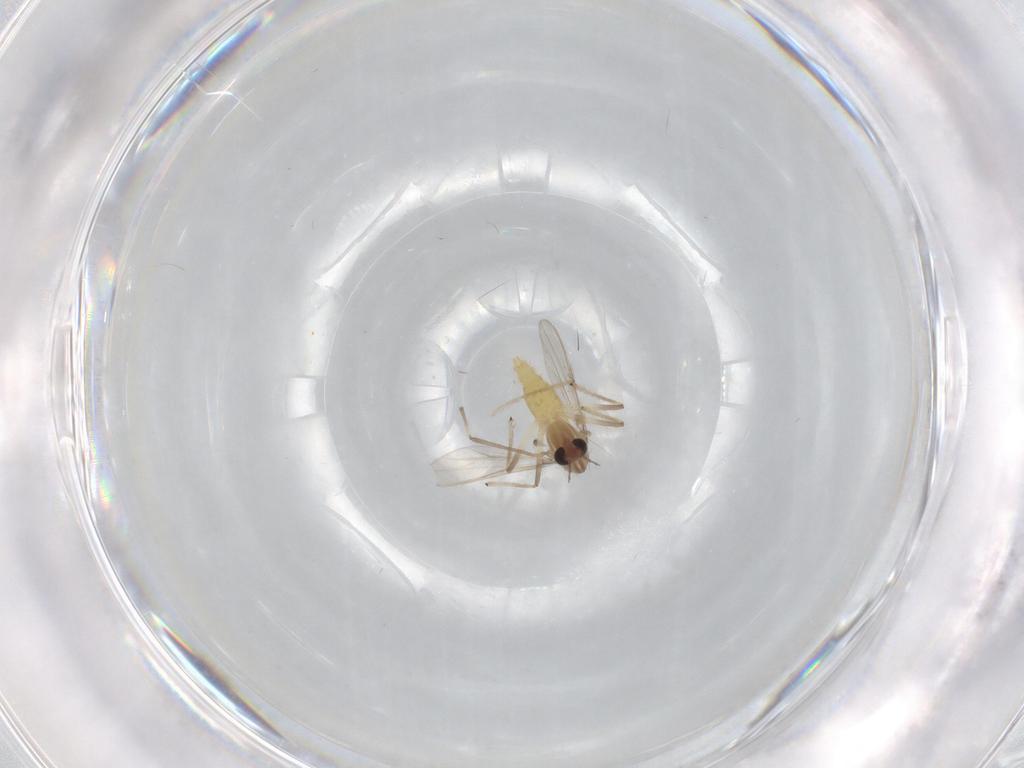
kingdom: Animalia
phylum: Arthropoda
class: Insecta
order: Diptera
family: Chironomidae
